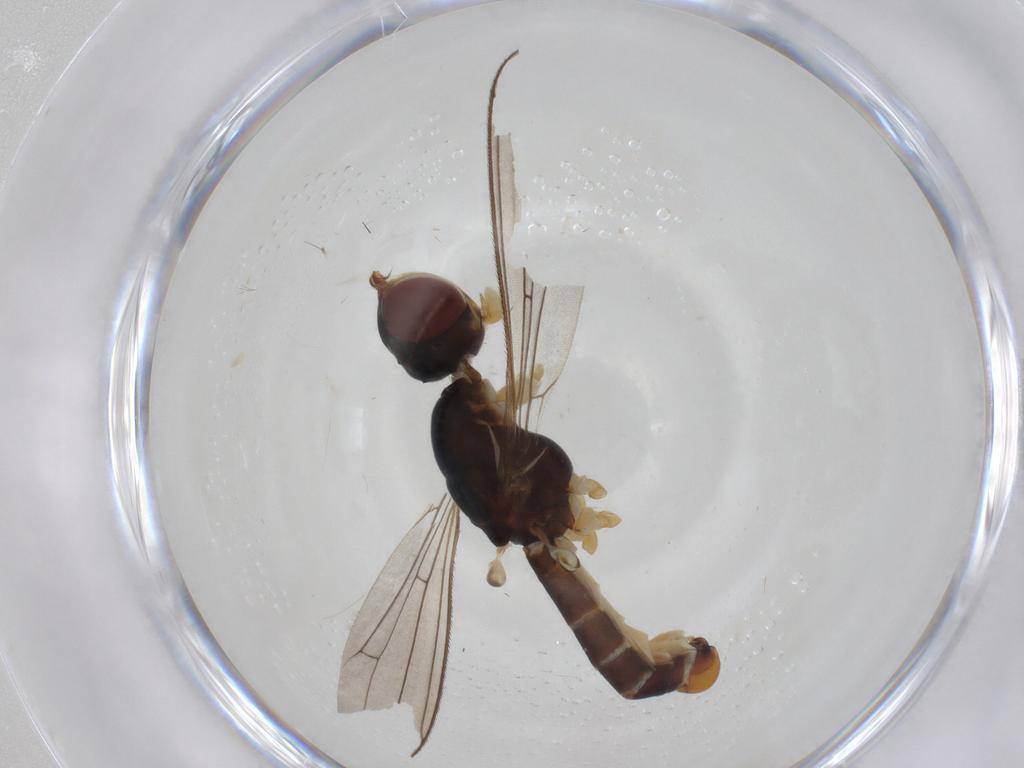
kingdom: Animalia
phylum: Arthropoda
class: Insecta
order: Diptera
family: Micropezidae
